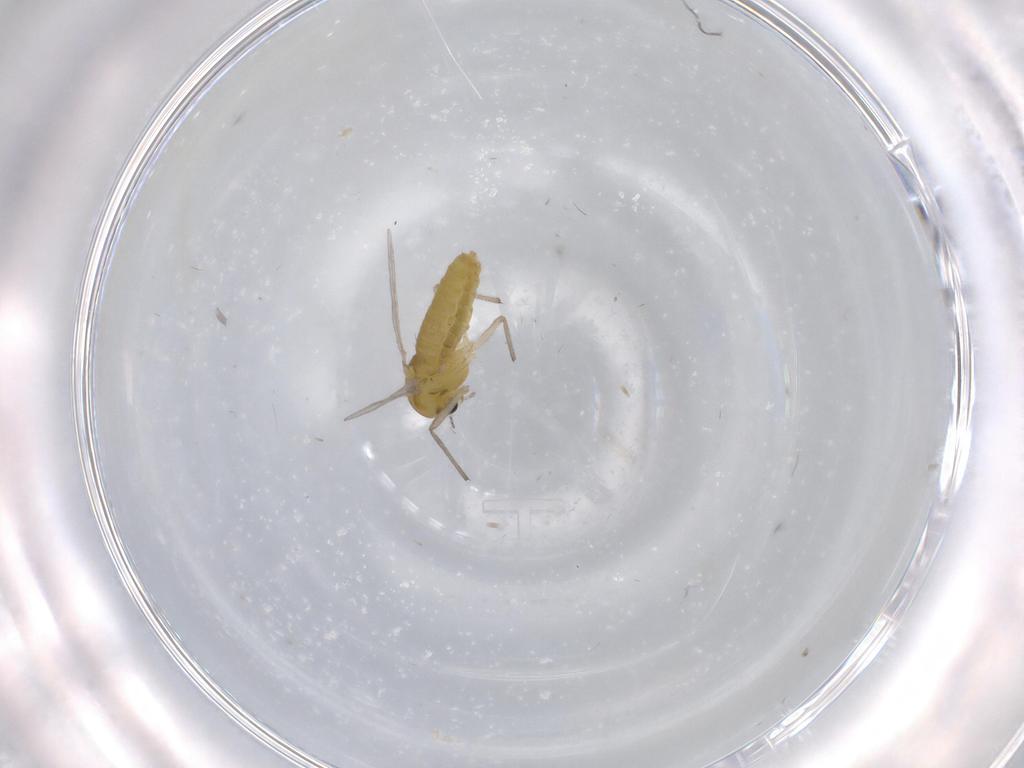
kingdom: Animalia
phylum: Arthropoda
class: Insecta
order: Diptera
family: Chironomidae
